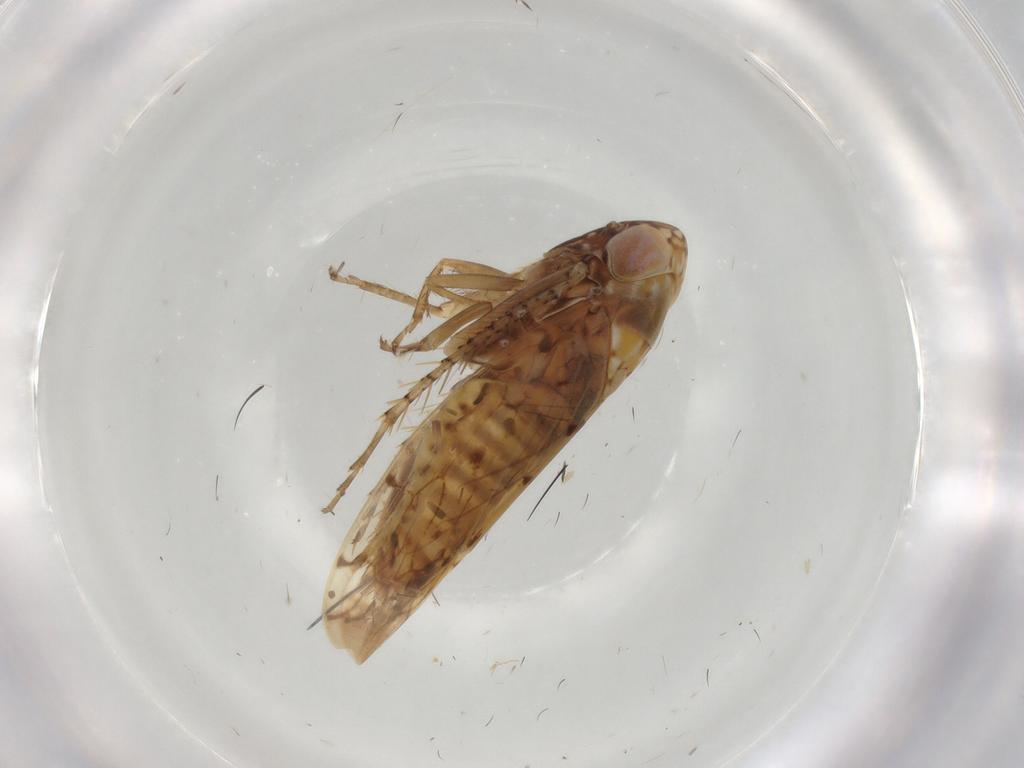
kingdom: Animalia
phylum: Arthropoda
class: Insecta
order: Hemiptera
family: Cicadellidae
